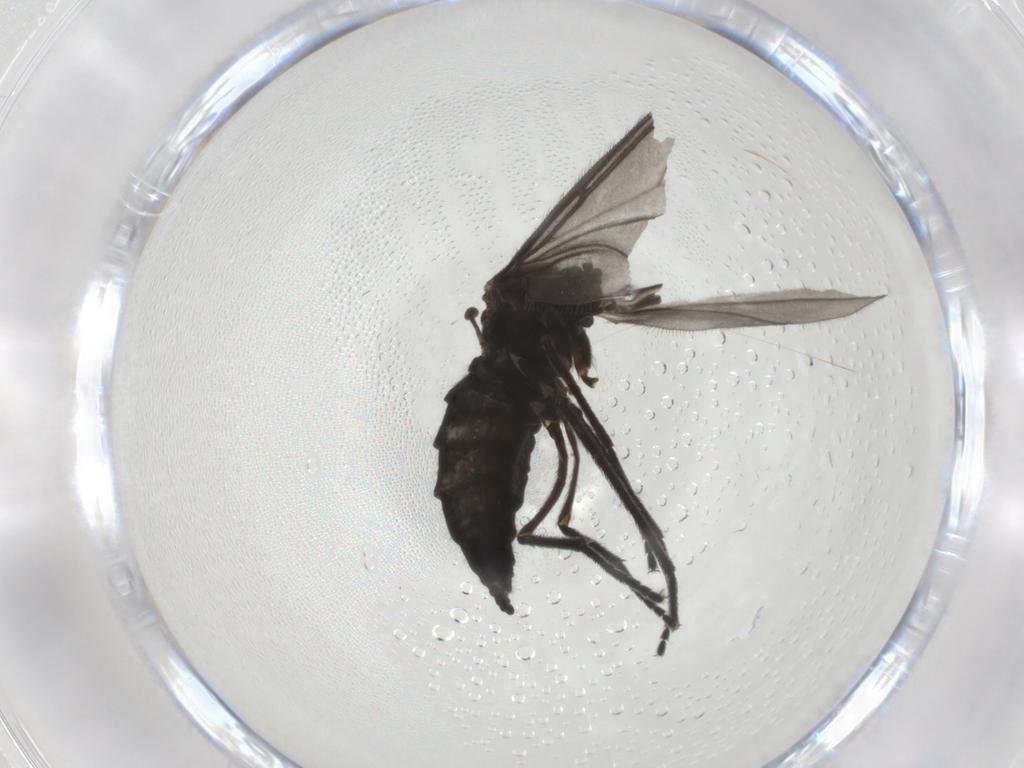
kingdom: Animalia
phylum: Arthropoda
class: Insecta
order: Diptera
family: Sciaridae
